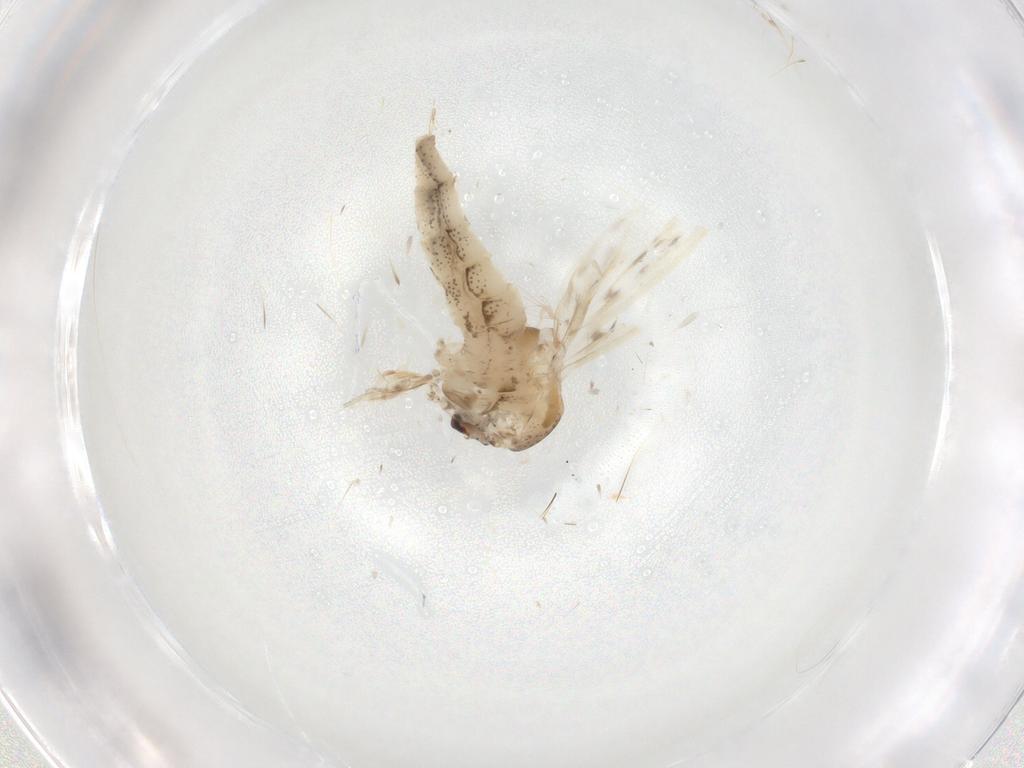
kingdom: Animalia
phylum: Arthropoda
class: Insecta
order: Diptera
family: Chaoboridae
